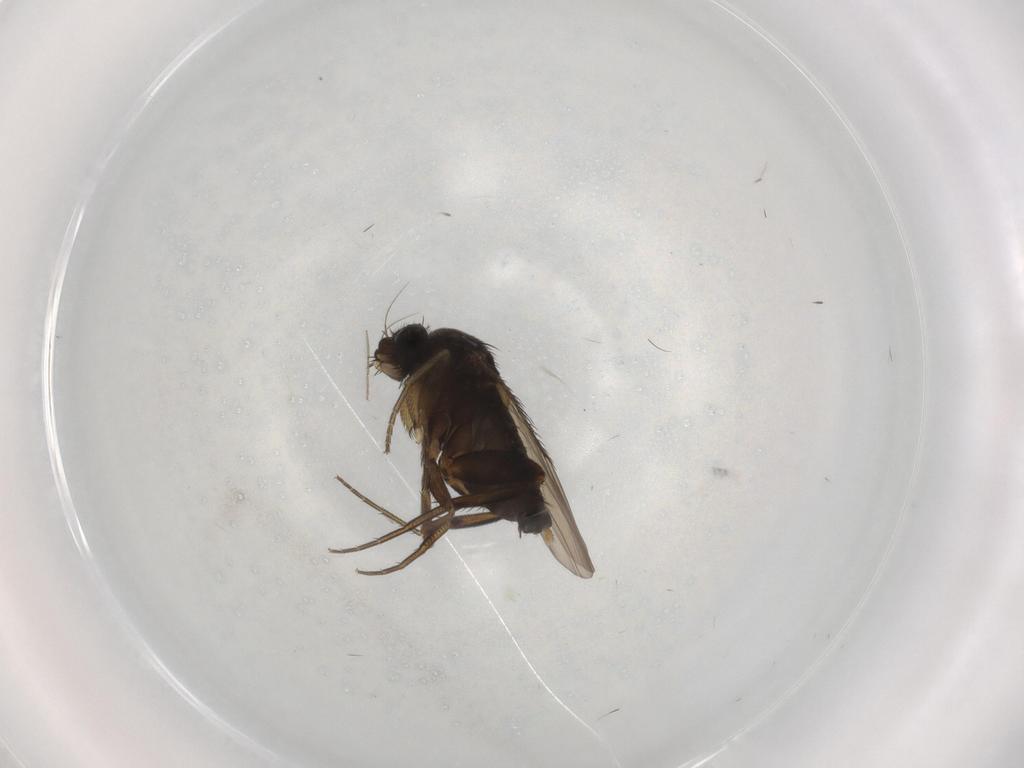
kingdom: Animalia
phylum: Arthropoda
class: Insecta
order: Diptera
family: Phoridae
